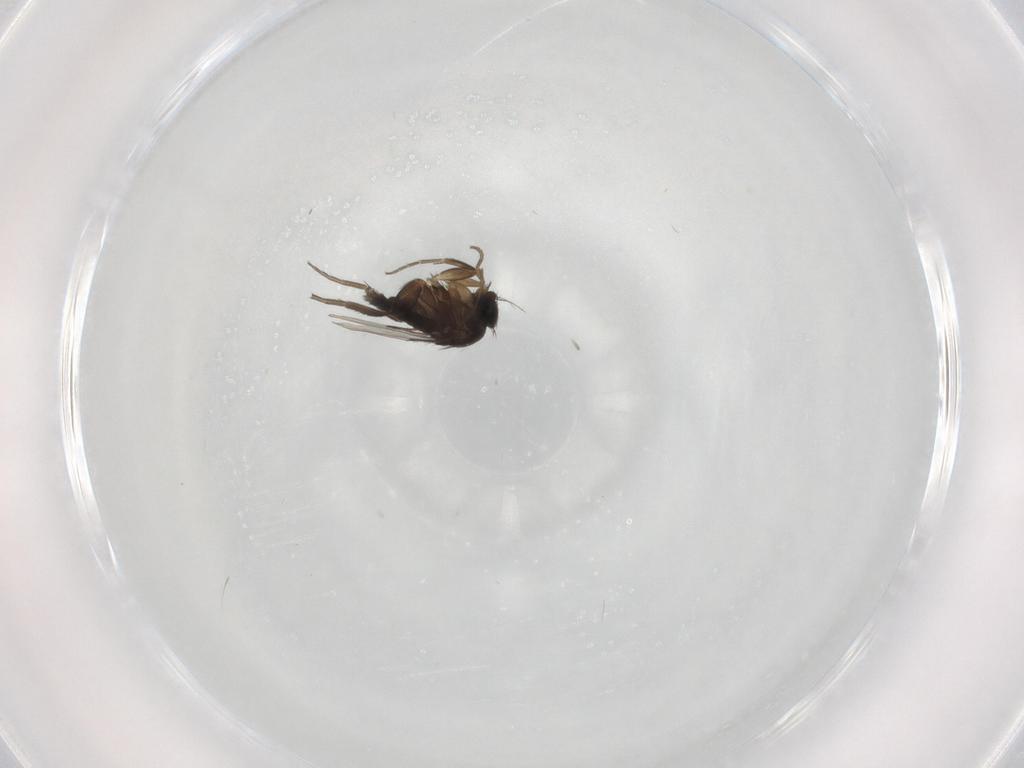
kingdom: Animalia
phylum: Arthropoda
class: Insecta
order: Diptera
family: Phoridae
